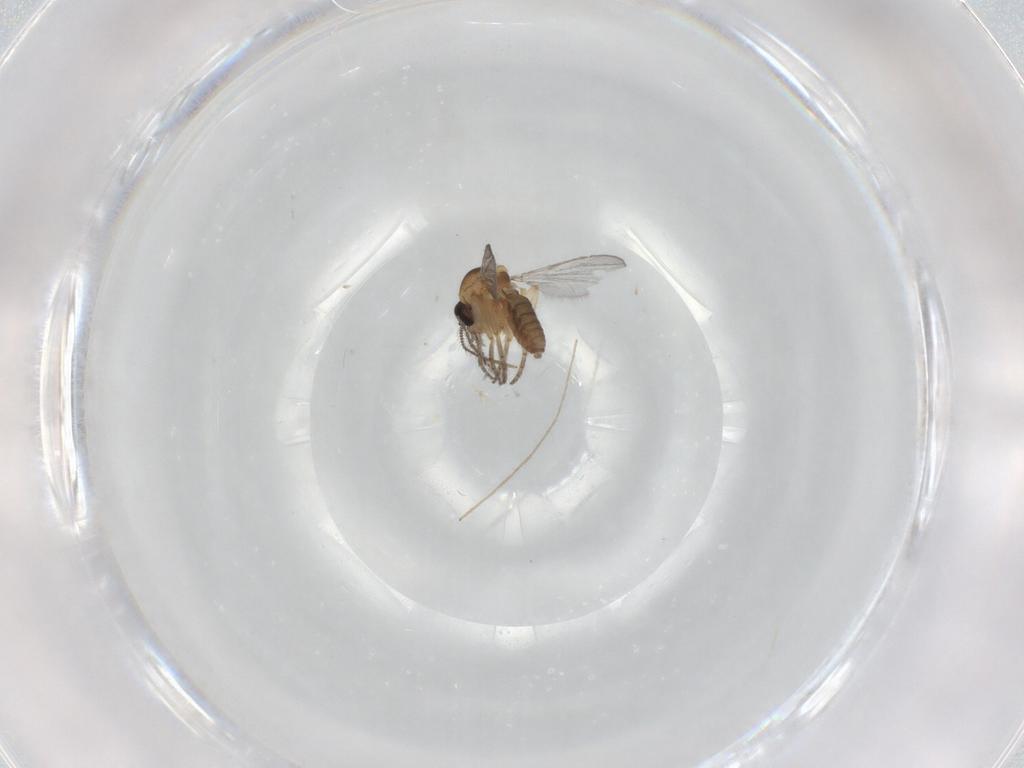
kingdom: Animalia
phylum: Arthropoda
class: Insecta
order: Diptera
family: Chironomidae
